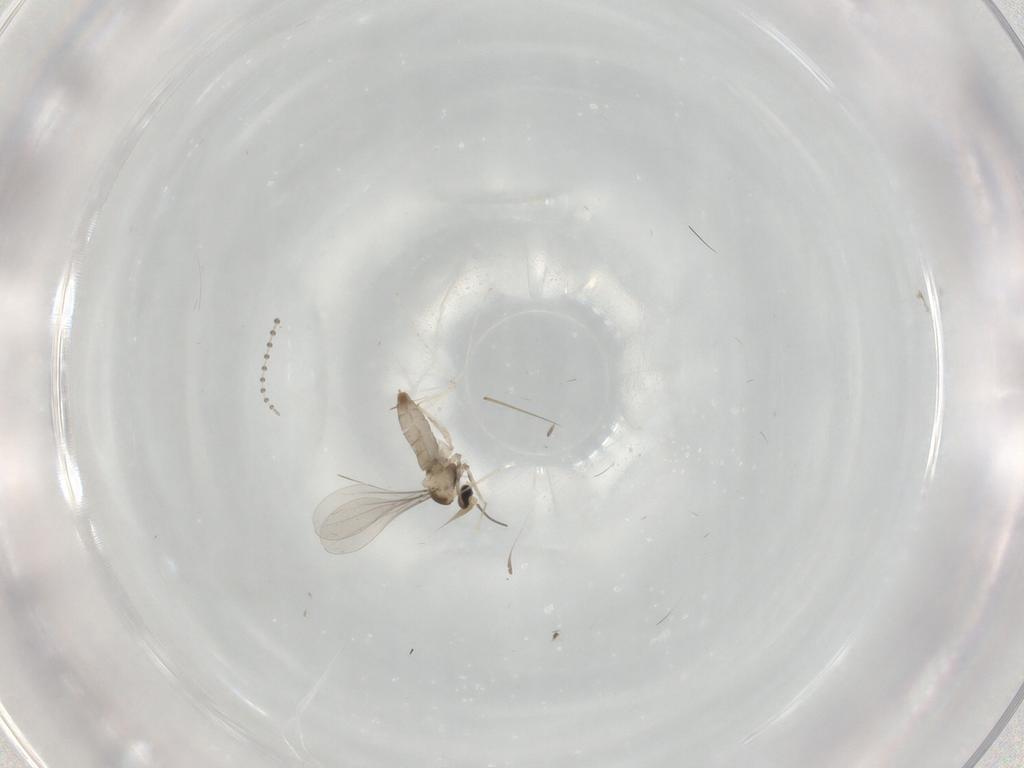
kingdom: Animalia
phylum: Arthropoda
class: Insecta
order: Diptera
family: Cecidomyiidae
